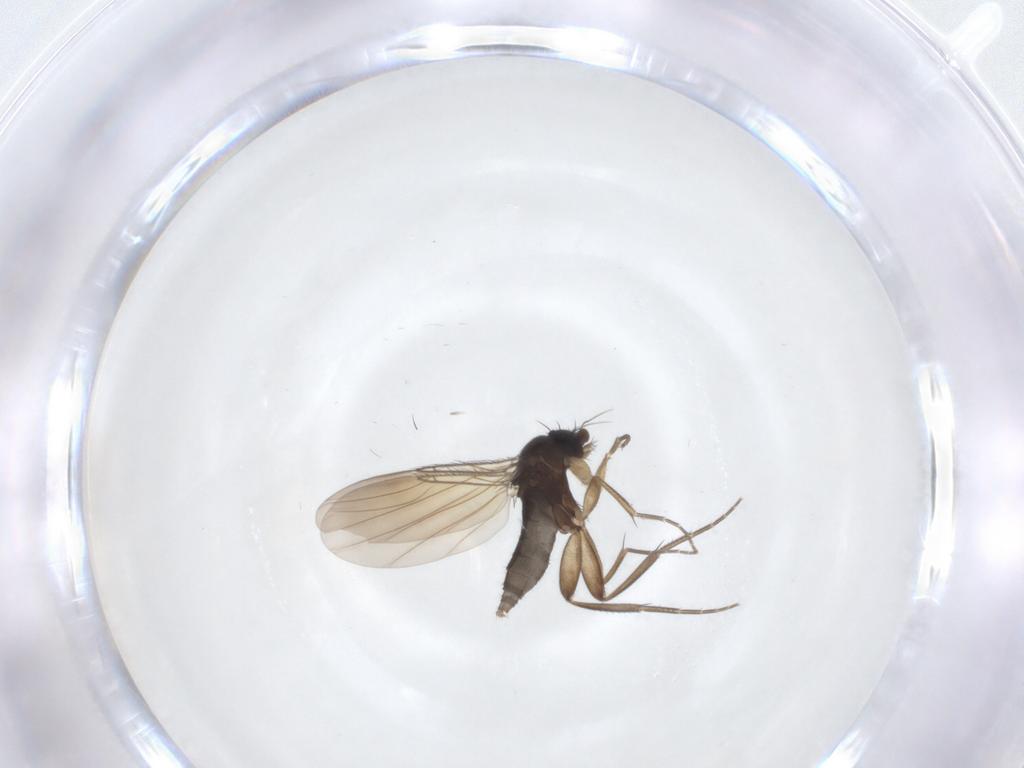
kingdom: Animalia
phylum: Arthropoda
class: Insecta
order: Diptera
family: Phoridae
